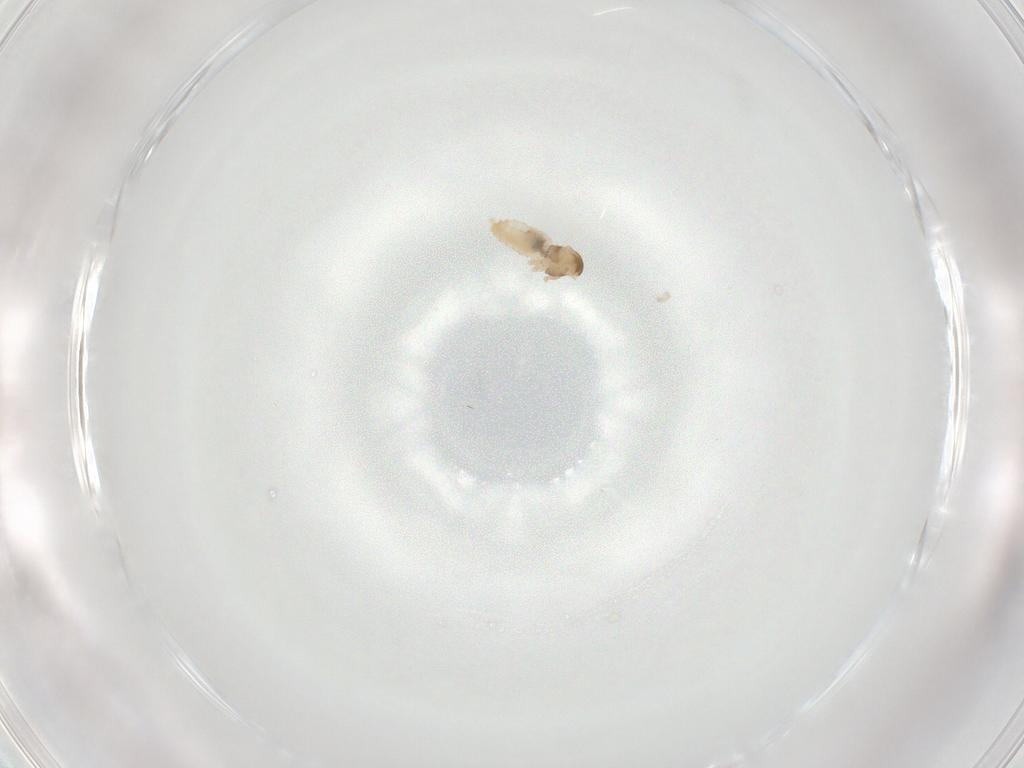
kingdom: Animalia
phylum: Arthropoda
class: Insecta
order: Diptera
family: Cecidomyiidae
